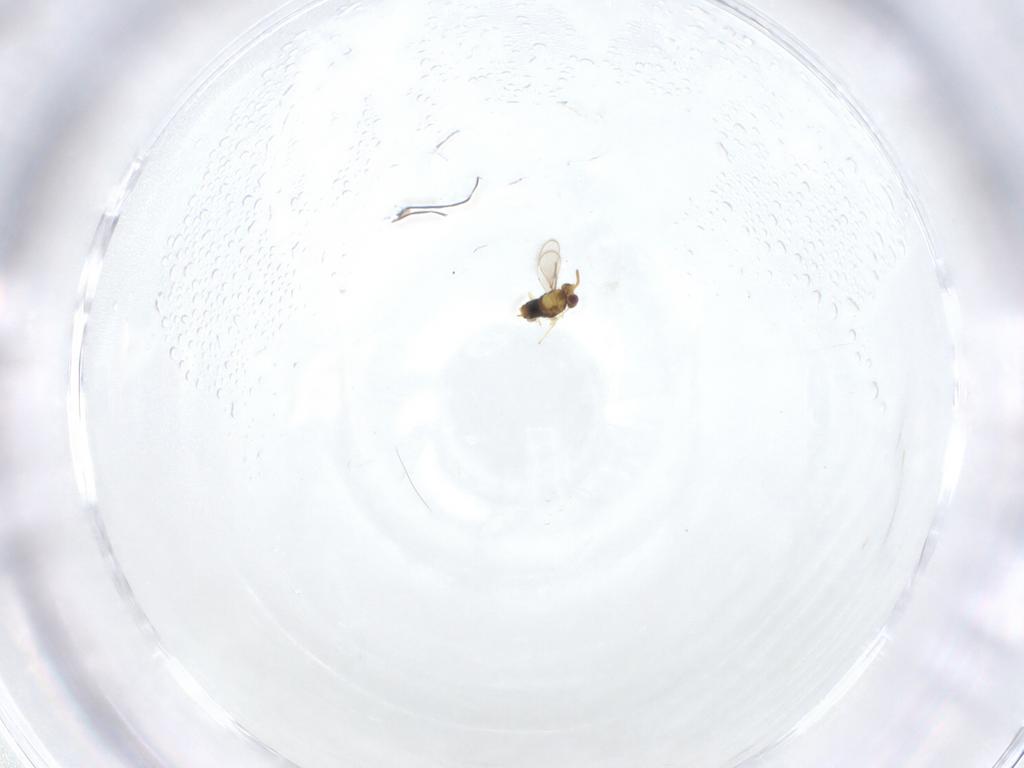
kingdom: Animalia
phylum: Arthropoda
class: Insecta
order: Hymenoptera
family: Aphelinidae
